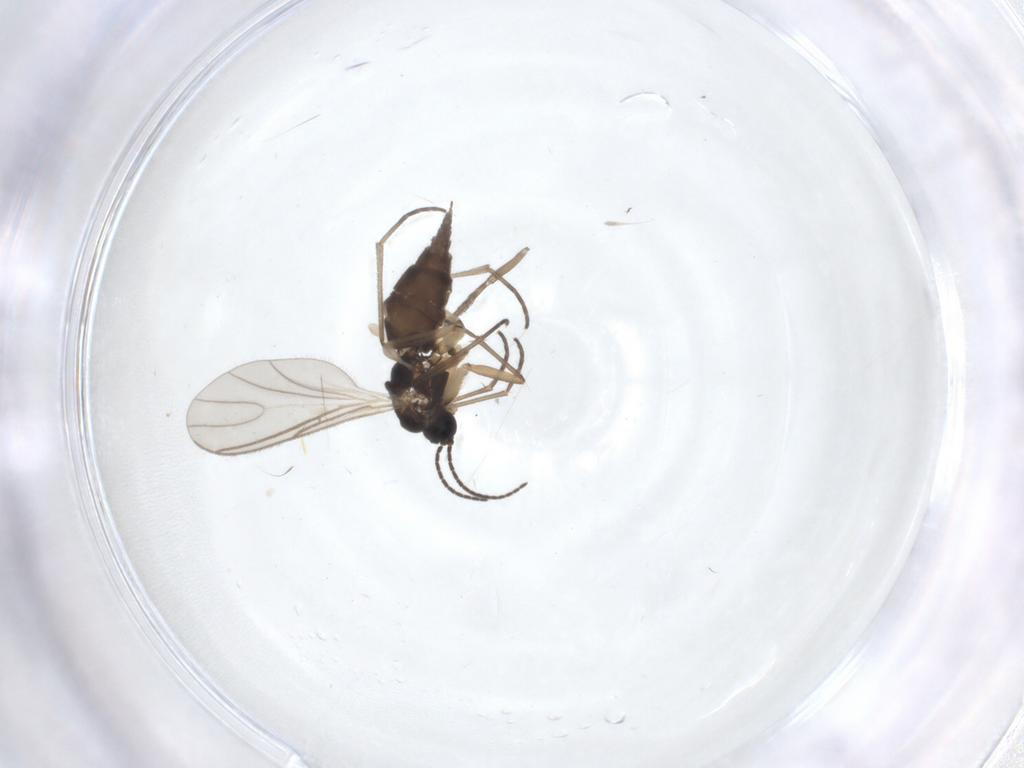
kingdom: Animalia
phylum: Arthropoda
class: Insecta
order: Diptera
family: Sciaridae
